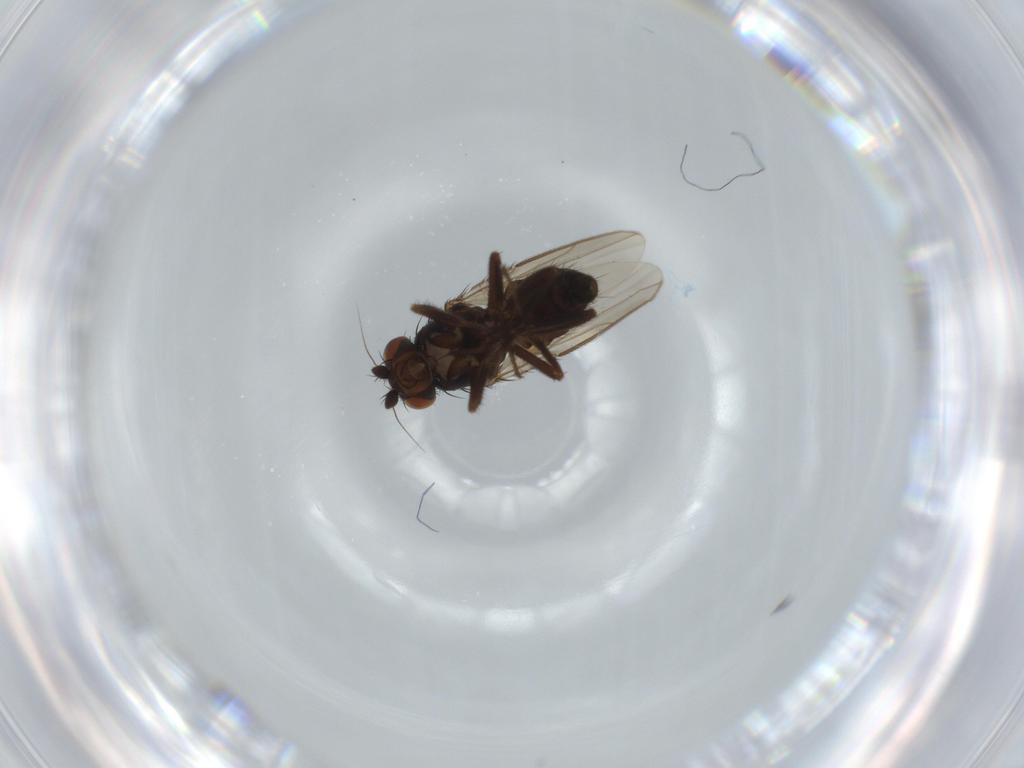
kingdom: Animalia
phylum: Arthropoda
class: Insecta
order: Diptera
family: Sphaeroceridae
